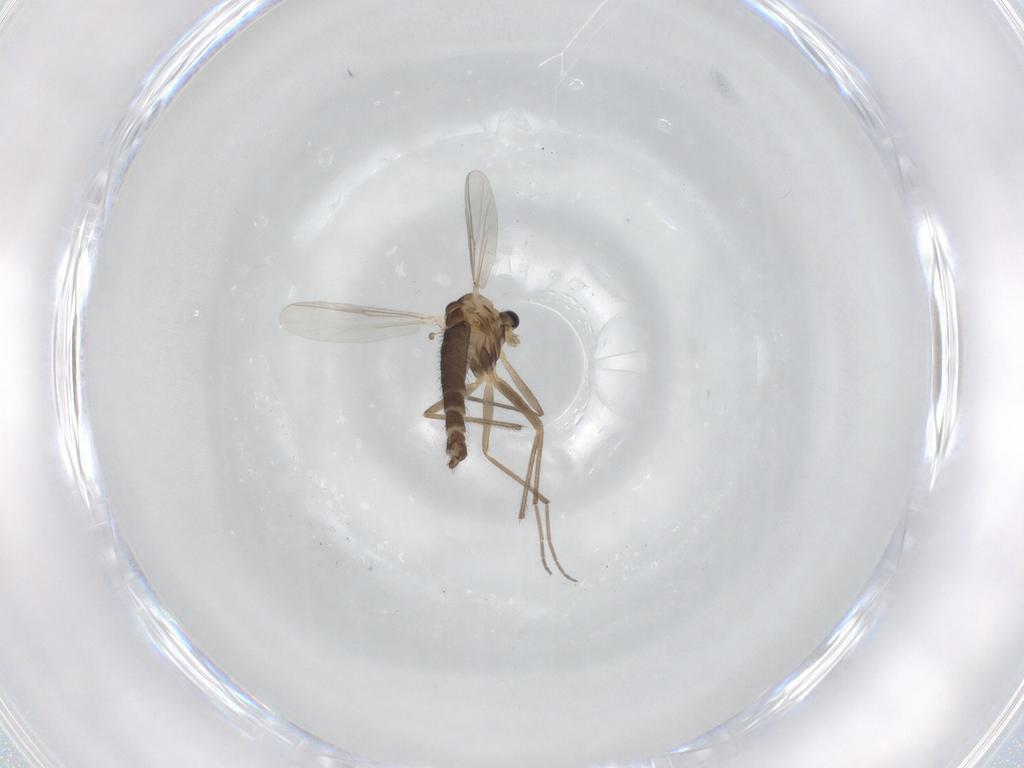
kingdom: Animalia
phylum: Arthropoda
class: Insecta
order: Diptera
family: Chironomidae
